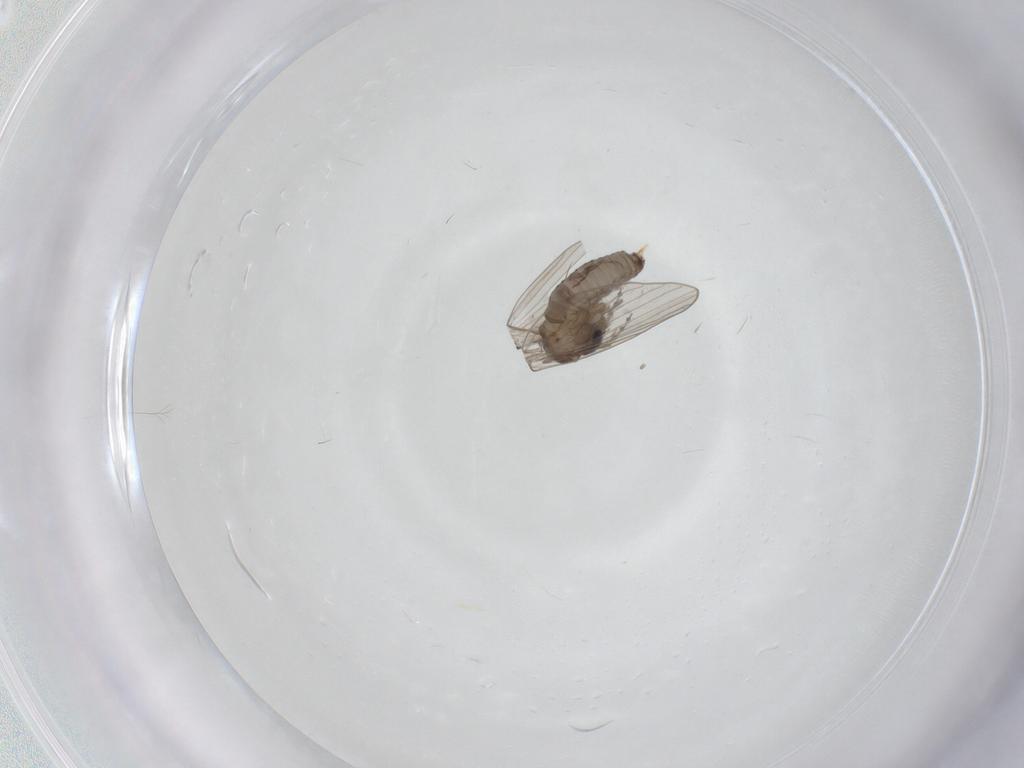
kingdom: Animalia
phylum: Arthropoda
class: Insecta
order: Diptera
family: Psychodidae
